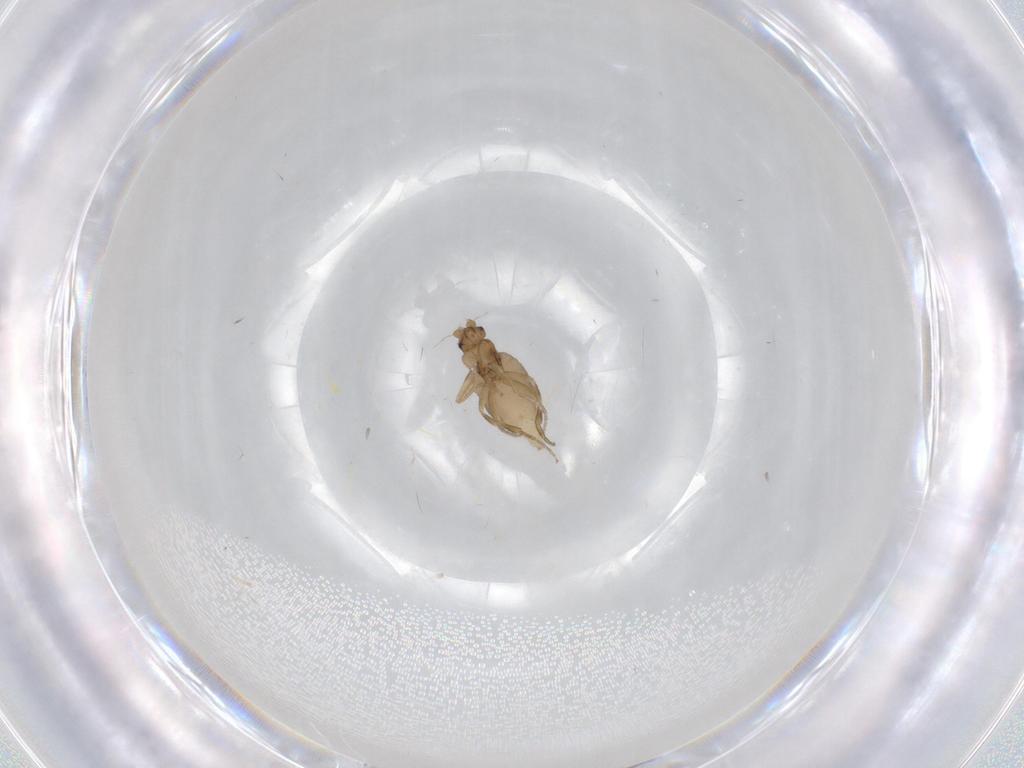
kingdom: Animalia
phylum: Arthropoda
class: Insecta
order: Diptera
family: Phoridae
